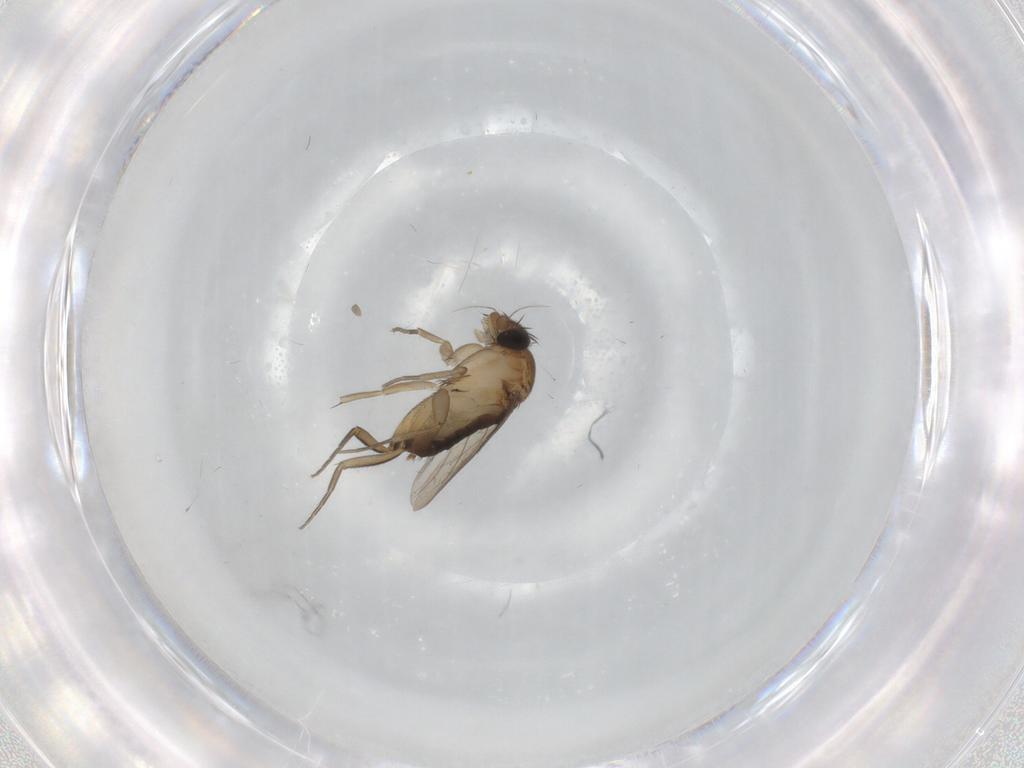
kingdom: Animalia
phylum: Arthropoda
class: Insecta
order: Diptera
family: Phoridae
